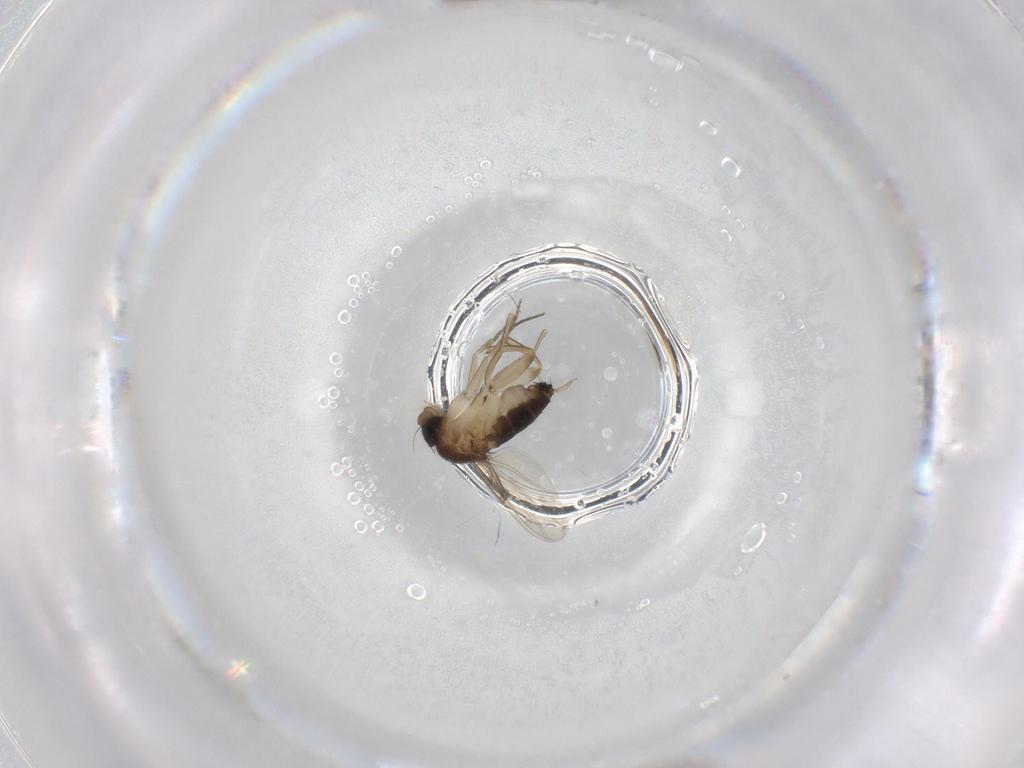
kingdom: Animalia
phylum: Arthropoda
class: Insecta
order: Diptera
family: Phoridae
